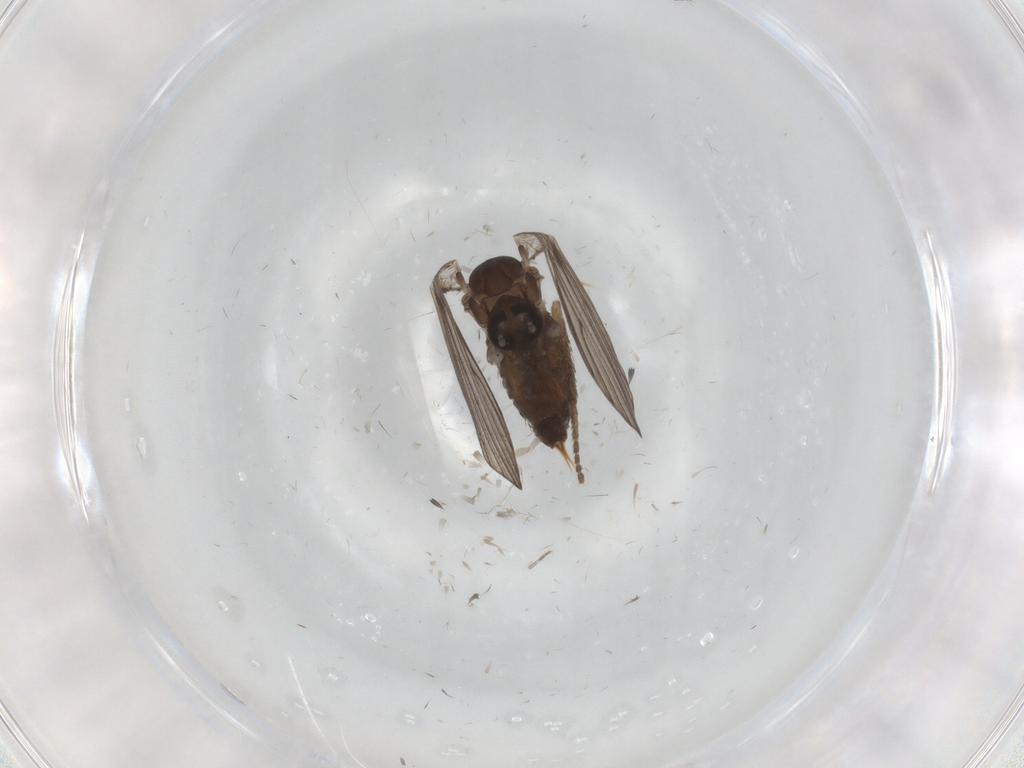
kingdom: Animalia
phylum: Arthropoda
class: Insecta
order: Diptera
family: Psychodidae
